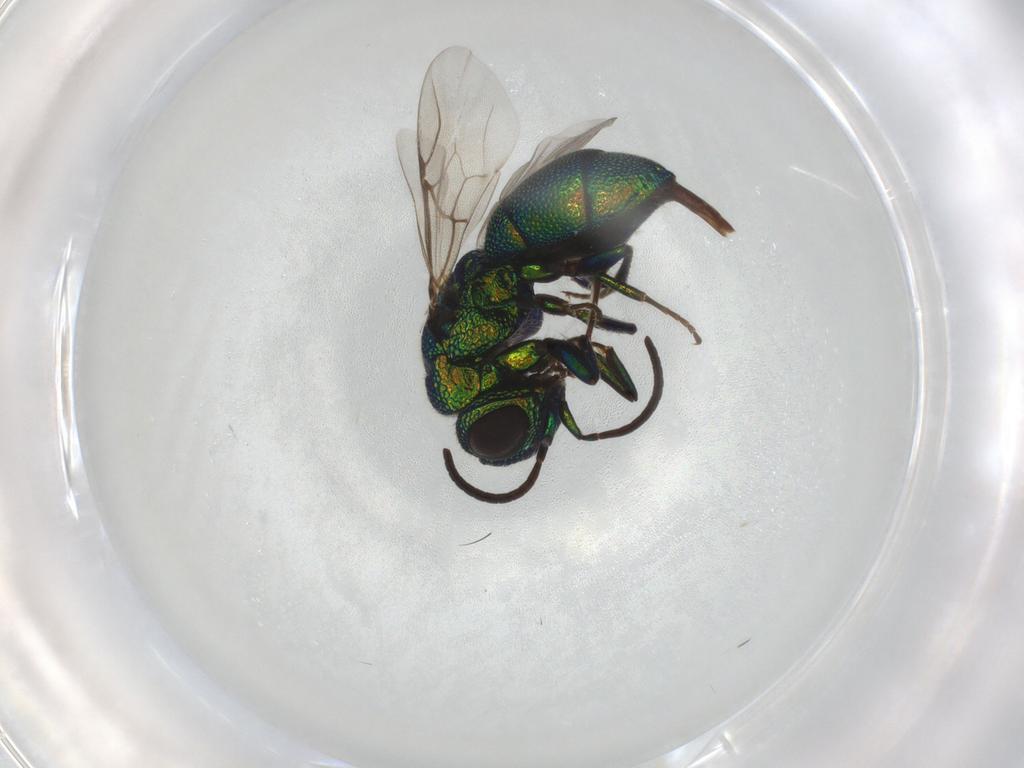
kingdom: Animalia
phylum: Arthropoda
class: Insecta
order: Hymenoptera
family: Chrysididae
